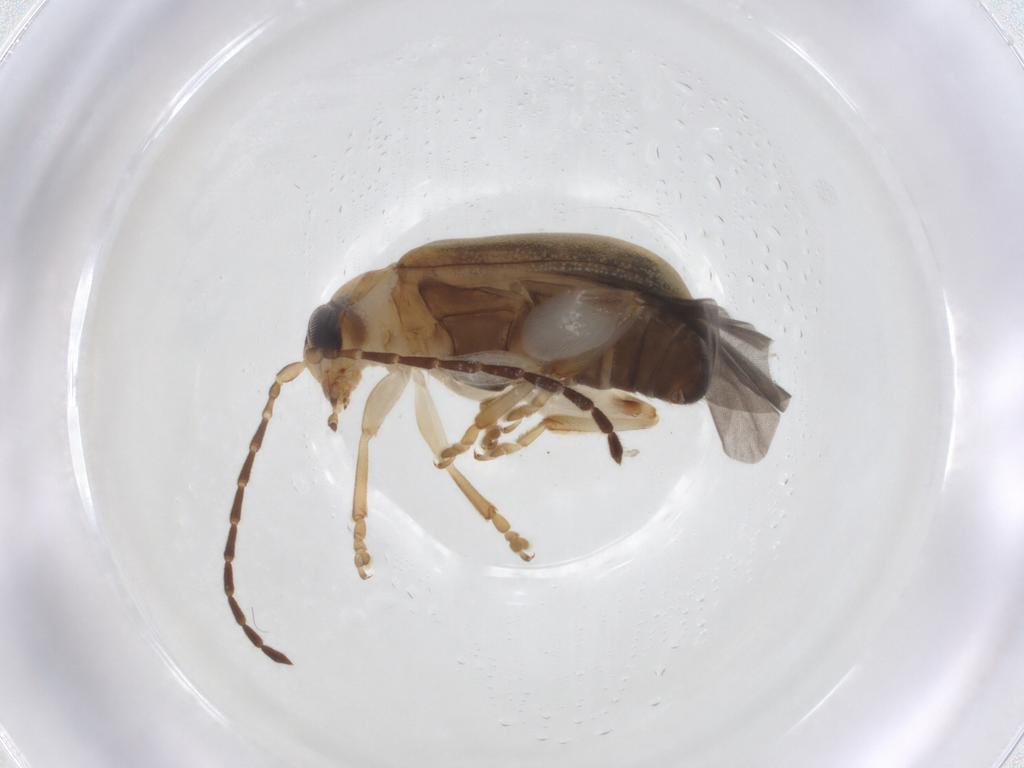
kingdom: Animalia
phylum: Arthropoda
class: Insecta
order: Coleoptera
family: Chrysomelidae
